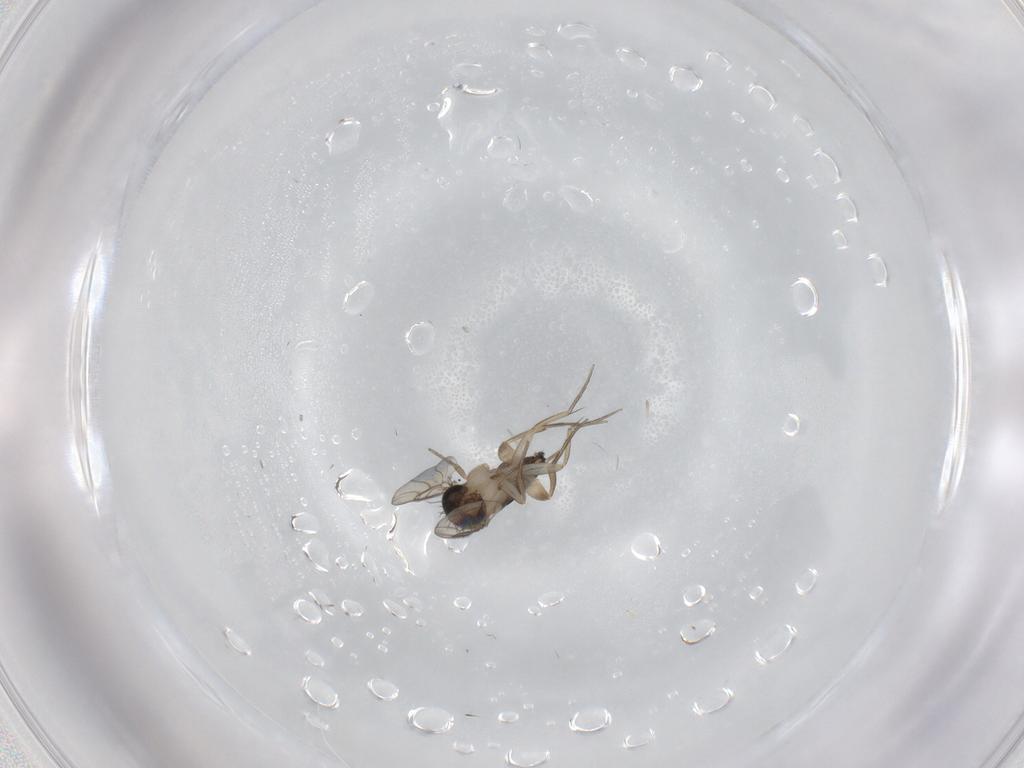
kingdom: Animalia
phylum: Arthropoda
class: Insecta
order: Diptera
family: Phoridae
